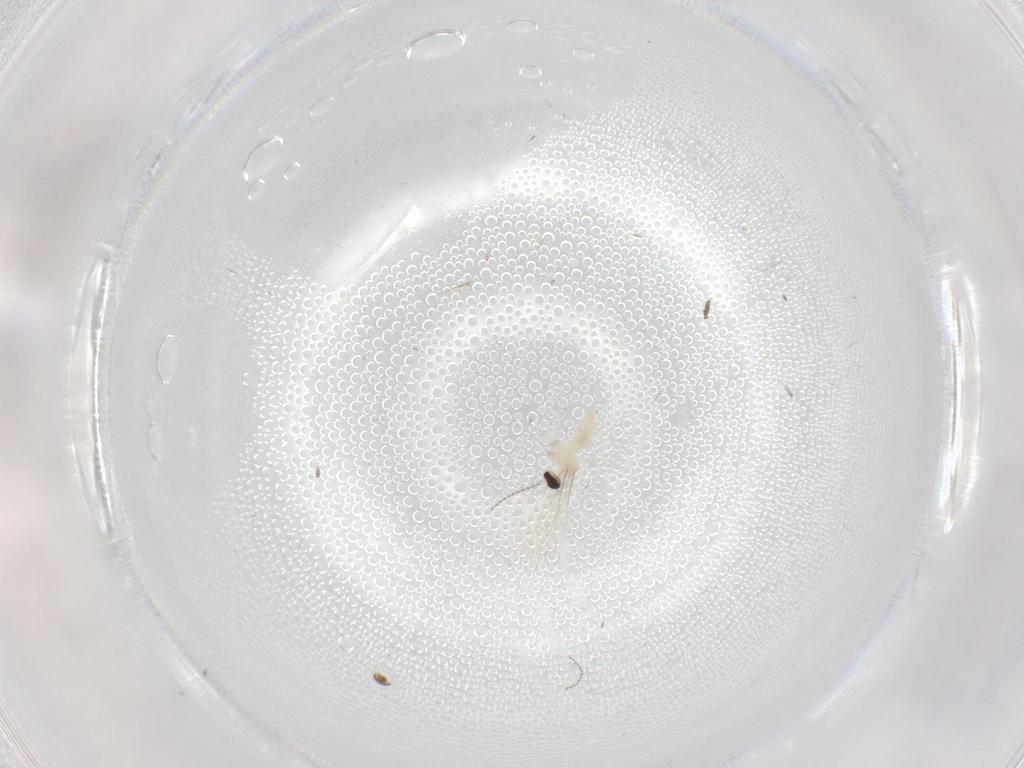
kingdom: Animalia
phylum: Arthropoda
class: Insecta
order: Diptera
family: Cecidomyiidae
